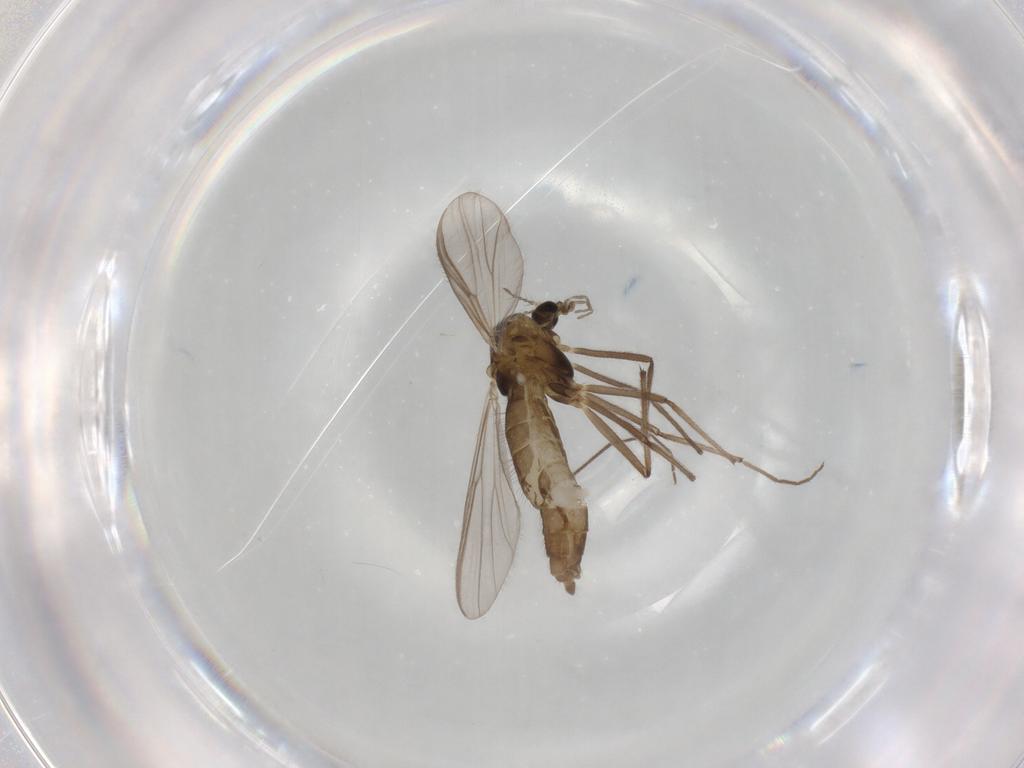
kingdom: Animalia
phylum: Arthropoda
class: Insecta
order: Diptera
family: Chironomidae
